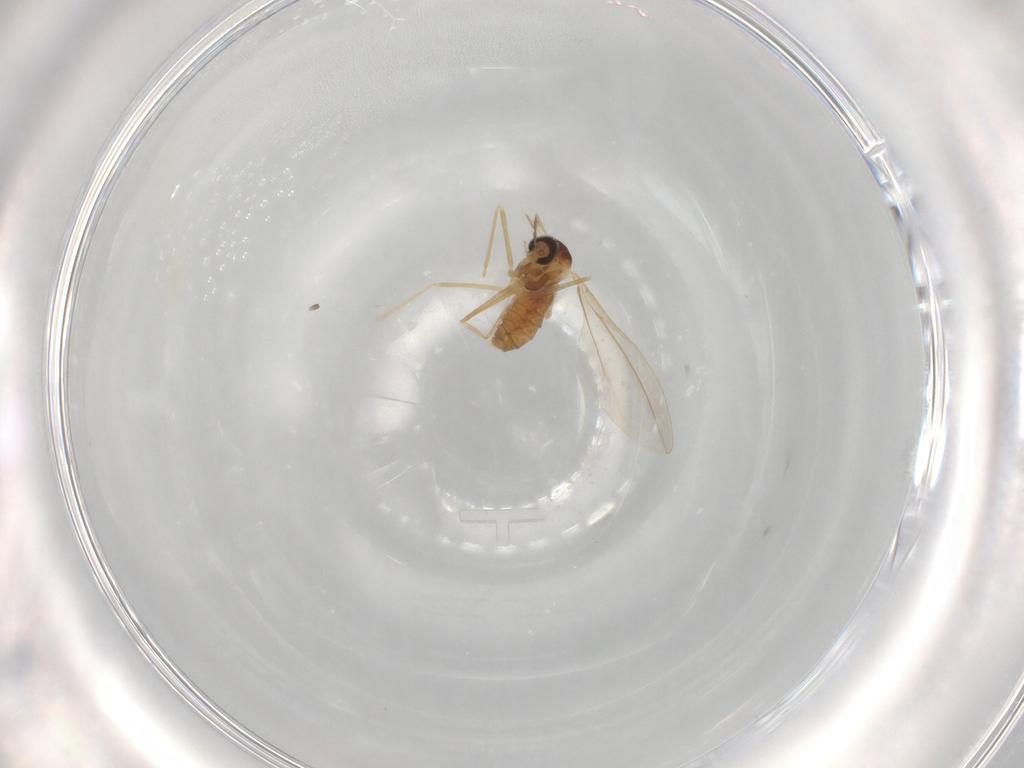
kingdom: Animalia
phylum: Arthropoda
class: Insecta
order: Diptera
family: Cecidomyiidae
